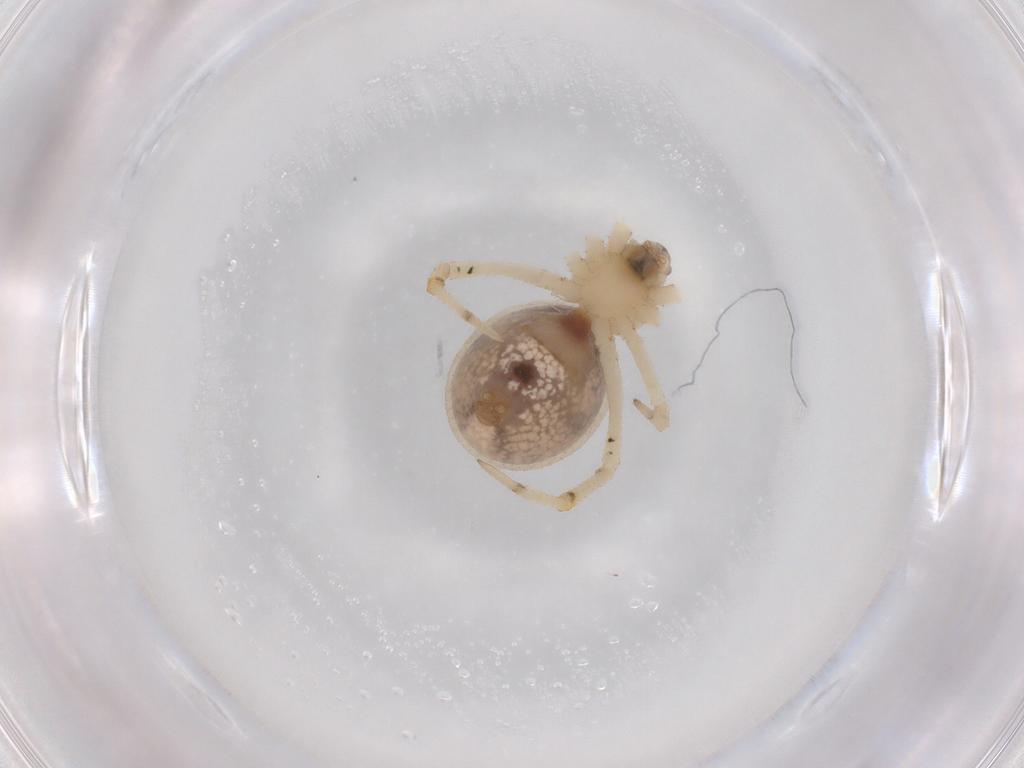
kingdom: Animalia
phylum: Arthropoda
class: Arachnida
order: Araneae
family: Theridiidae
